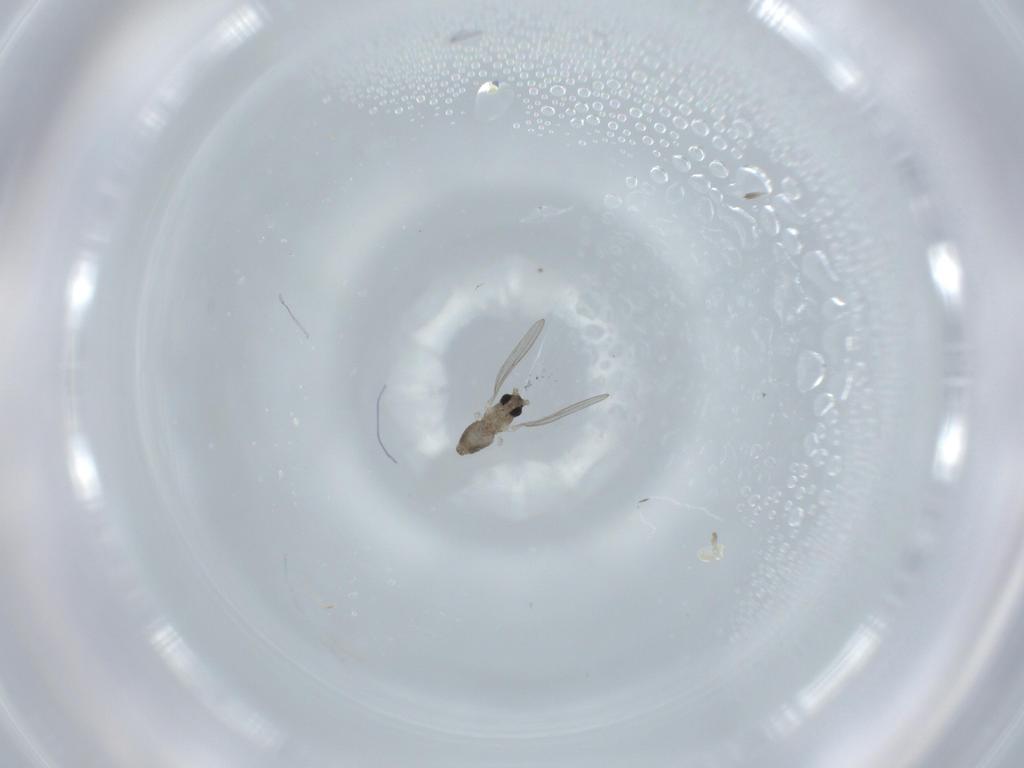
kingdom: Animalia
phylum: Arthropoda
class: Insecta
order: Diptera
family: Cecidomyiidae
